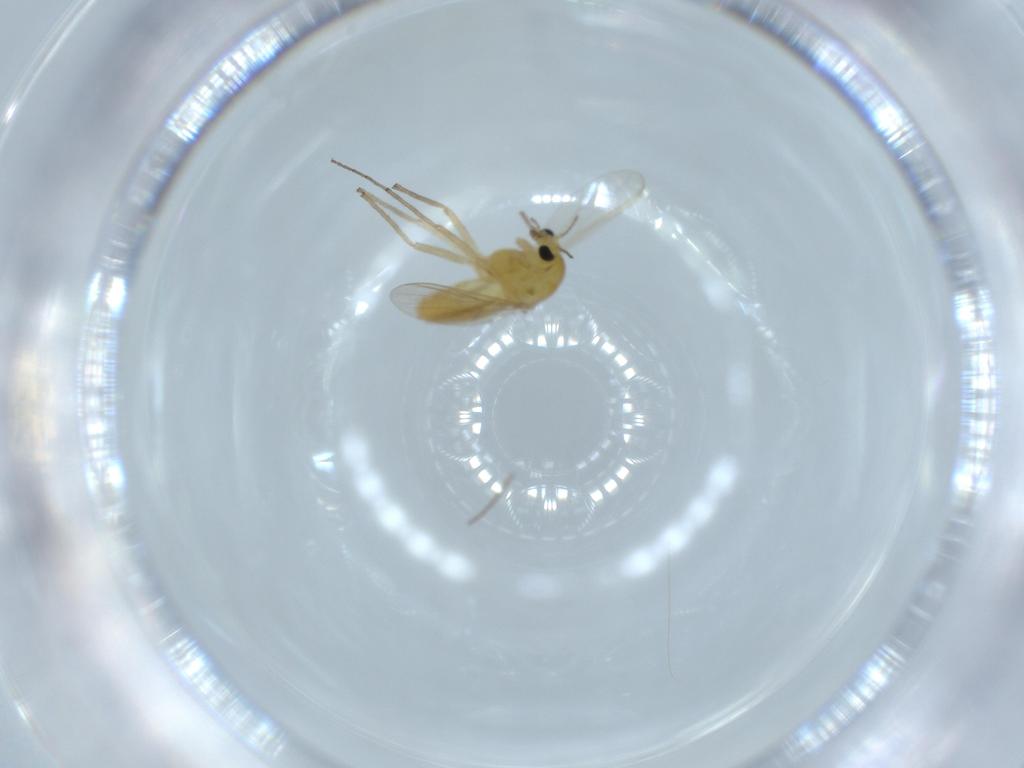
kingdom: Animalia
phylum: Arthropoda
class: Insecta
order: Diptera
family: Chironomidae
